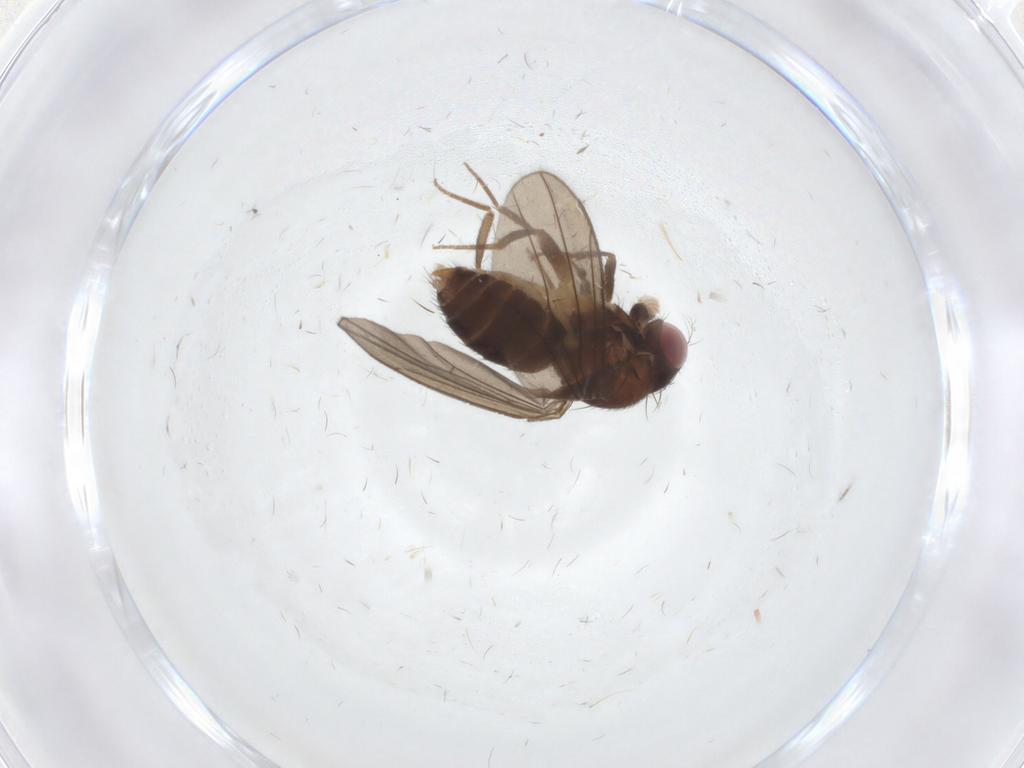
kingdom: Animalia
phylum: Arthropoda
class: Insecta
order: Diptera
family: Drosophilidae
